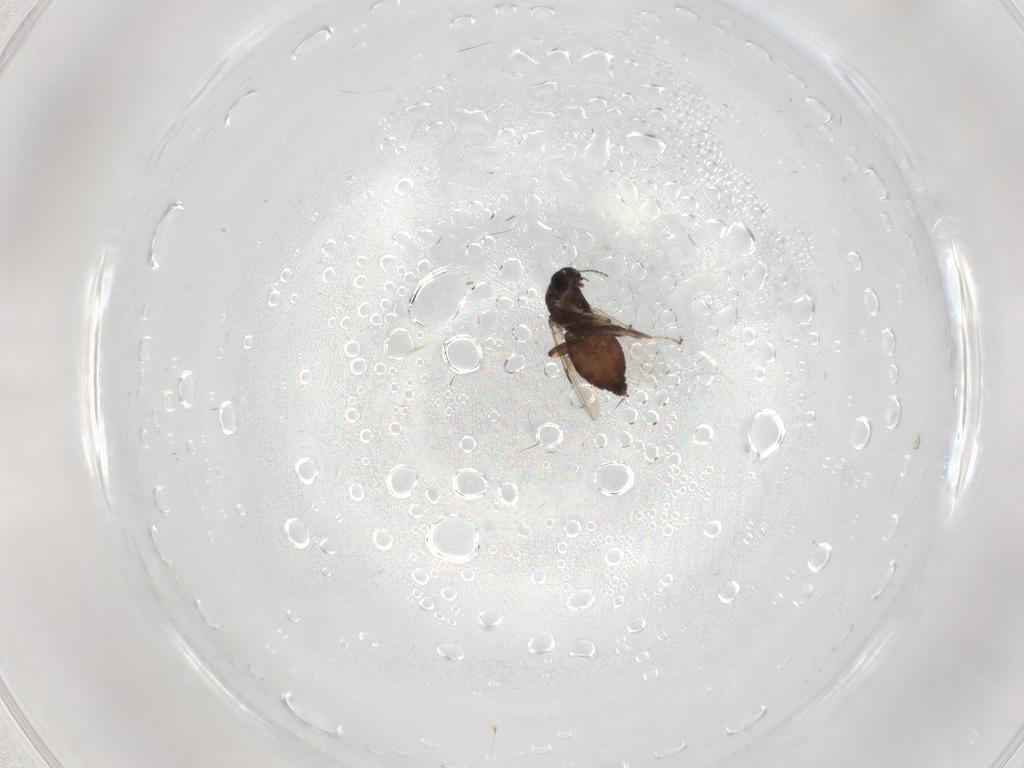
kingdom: Animalia
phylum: Arthropoda
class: Insecta
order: Diptera
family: Ceratopogonidae
